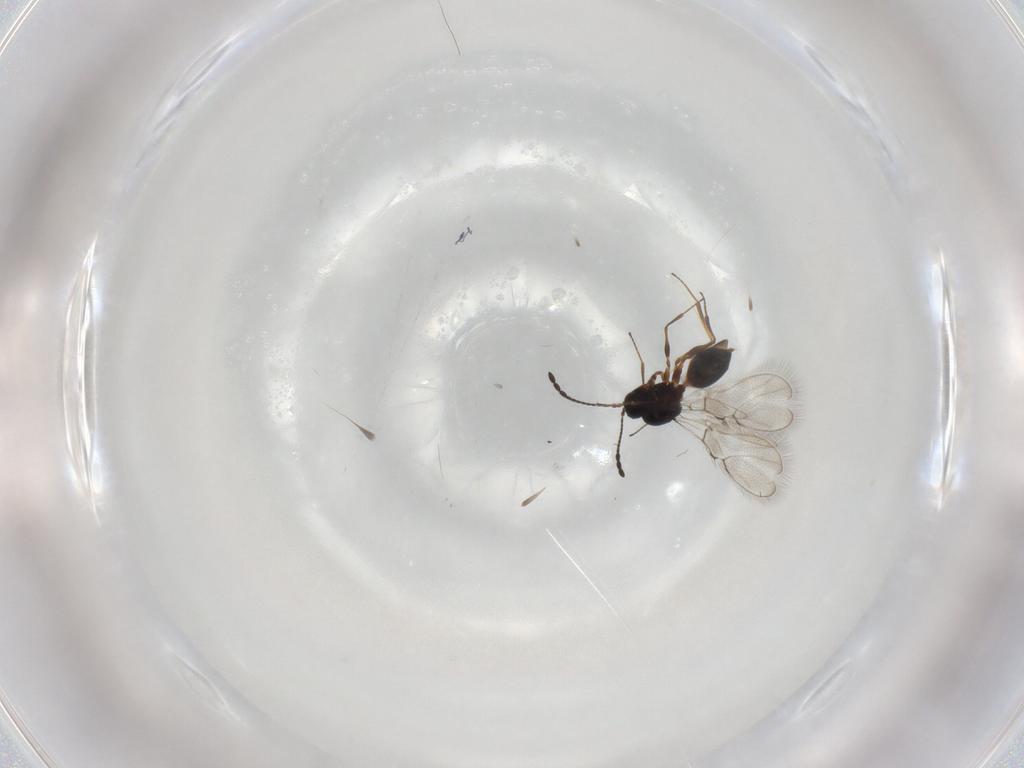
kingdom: Animalia
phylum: Arthropoda
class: Insecta
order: Hymenoptera
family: Figitidae
